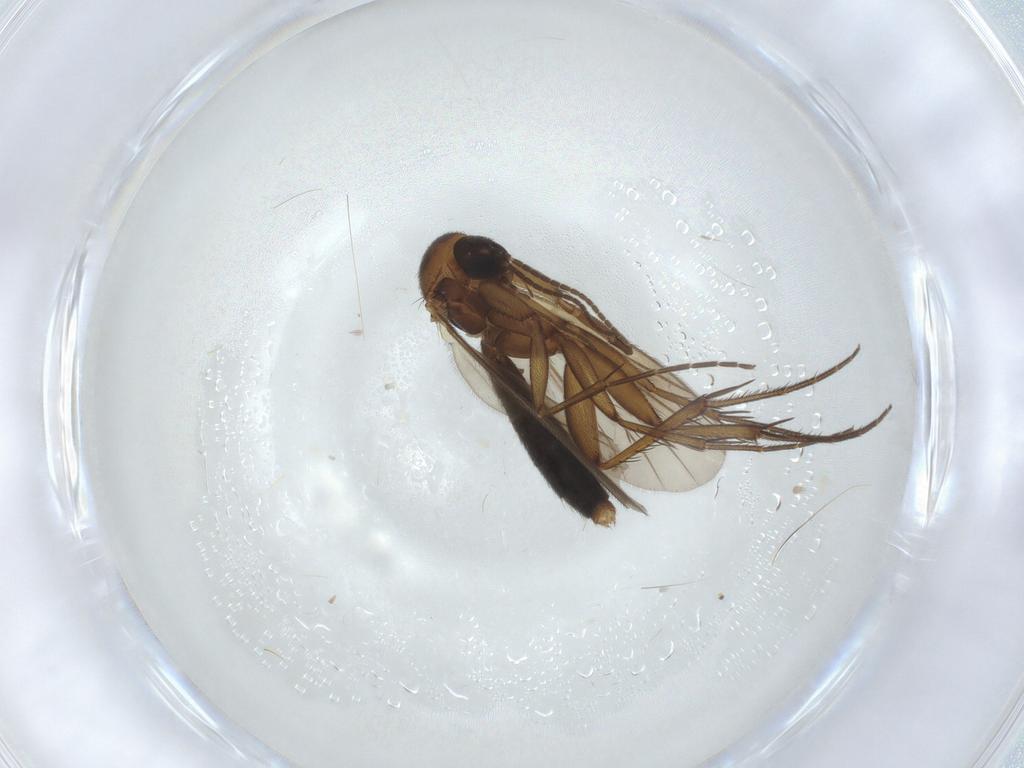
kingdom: Animalia
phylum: Arthropoda
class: Insecta
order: Diptera
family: Mycetophilidae
